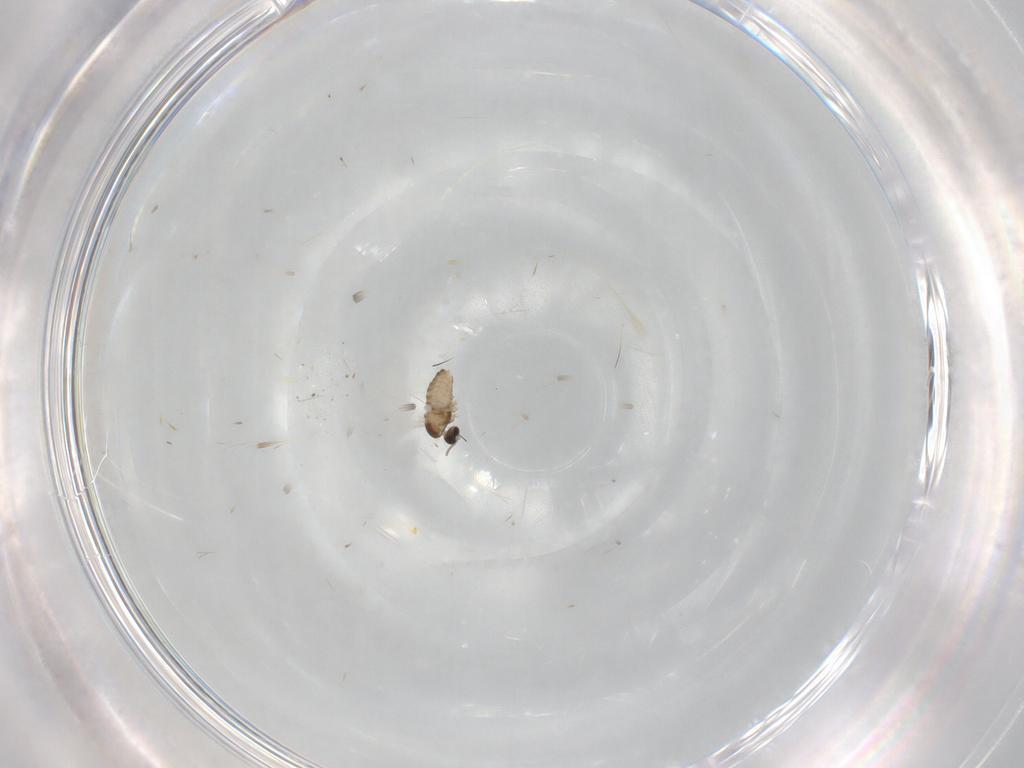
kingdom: Animalia
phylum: Arthropoda
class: Insecta
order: Diptera
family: Cecidomyiidae
